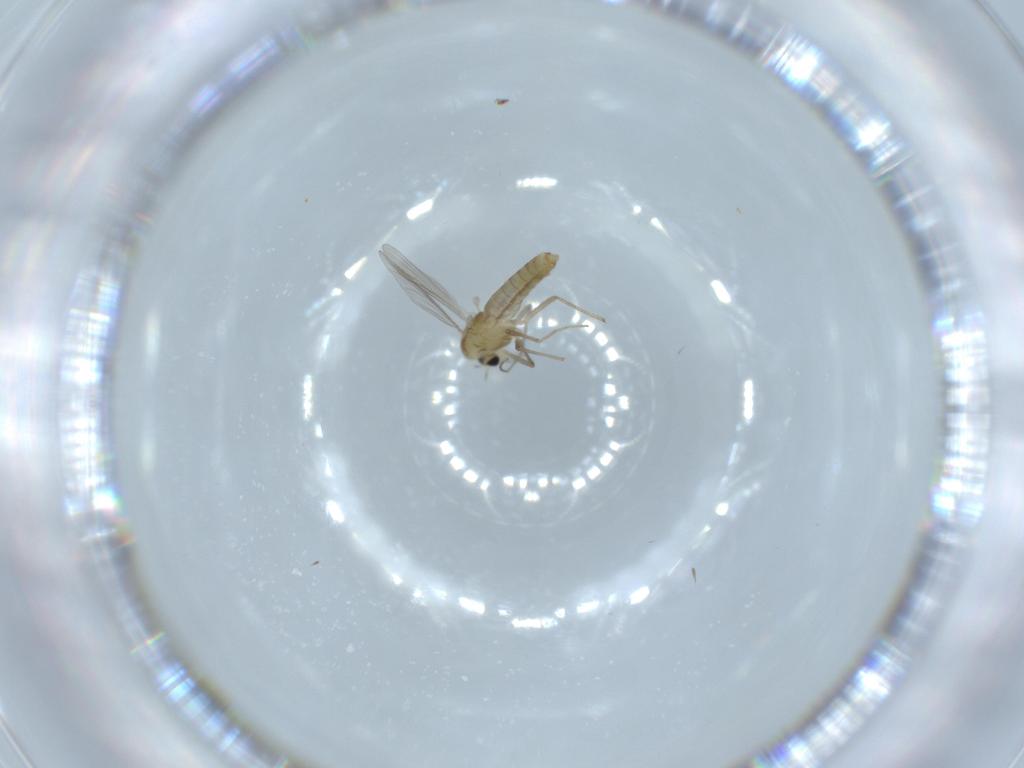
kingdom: Animalia
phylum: Arthropoda
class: Insecta
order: Diptera
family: Chironomidae
